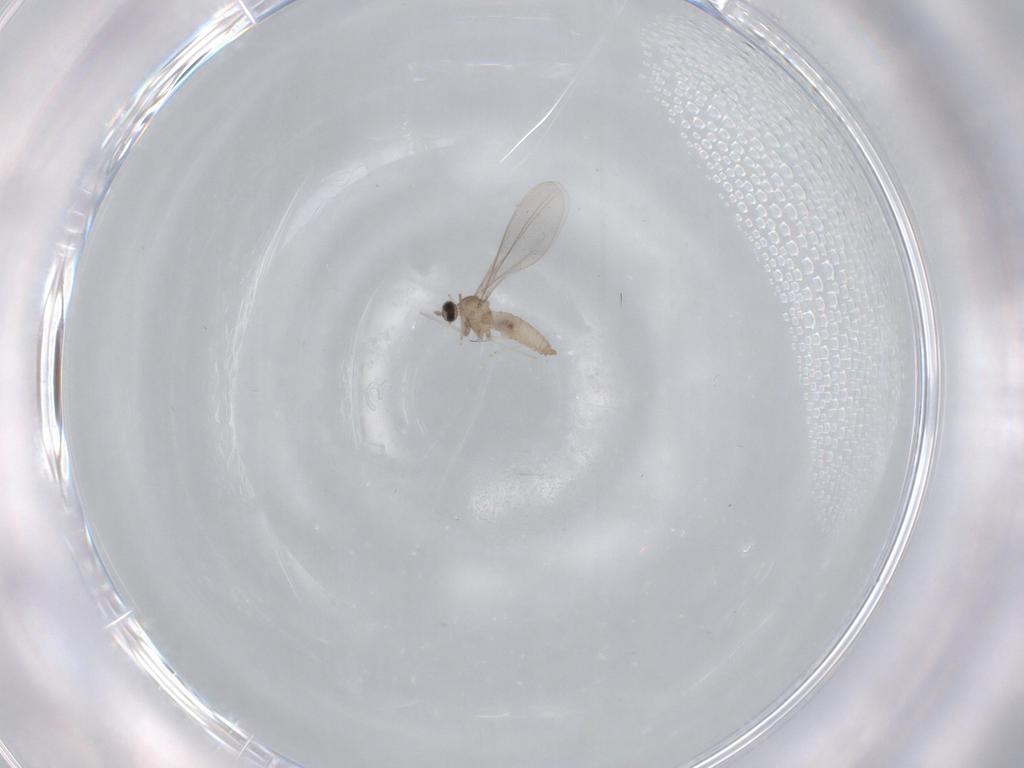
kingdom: Animalia
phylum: Arthropoda
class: Insecta
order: Diptera
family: Cecidomyiidae
